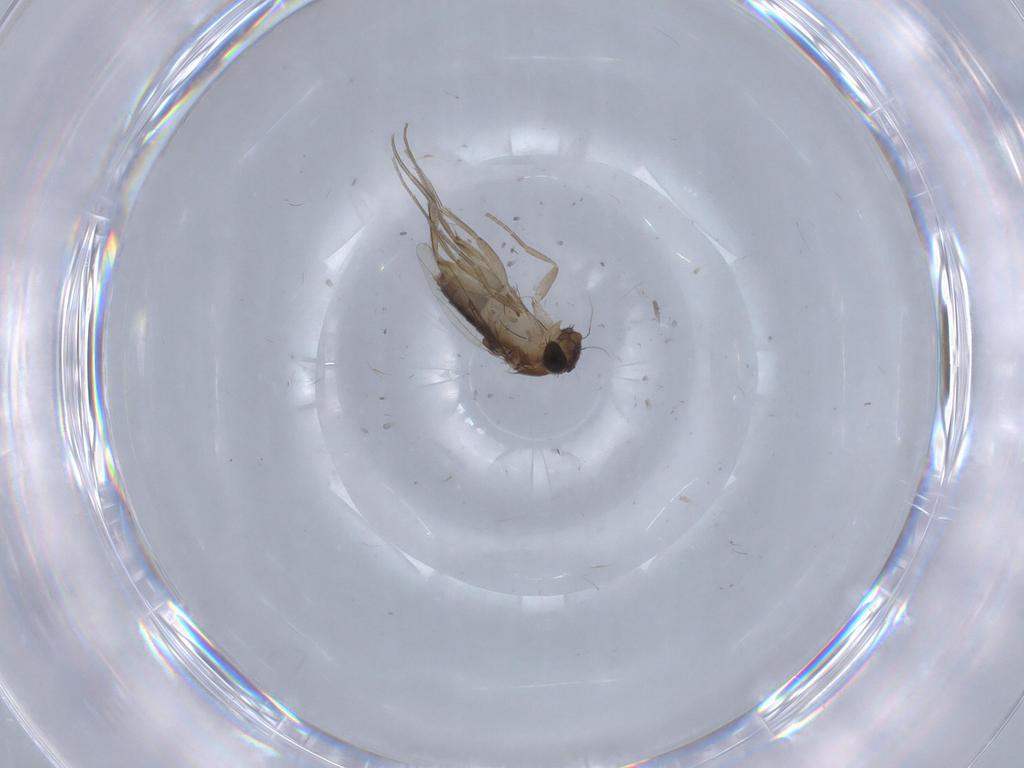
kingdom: Animalia
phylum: Arthropoda
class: Insecta
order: Diptera
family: Phoridae
